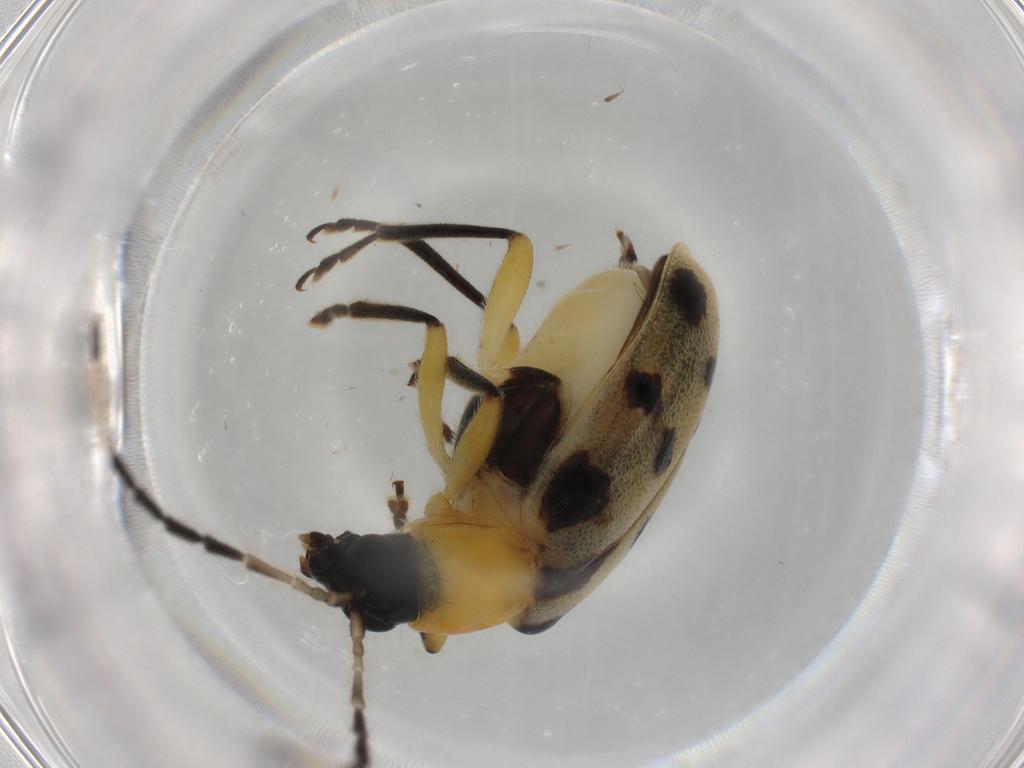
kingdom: Animalia
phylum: Arthropoda
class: Insecta
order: Coleoptera
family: Chrysomelidae
